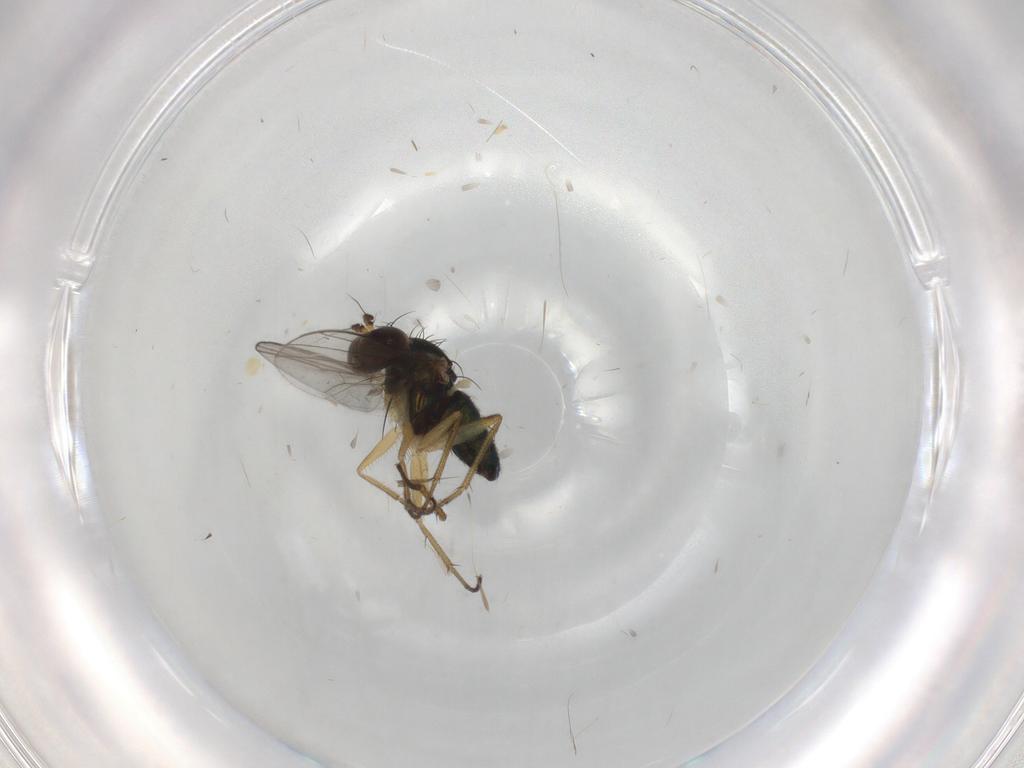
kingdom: Animalia
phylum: Arthropoda
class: Insecta
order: Diptera
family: Dolichopodidae
